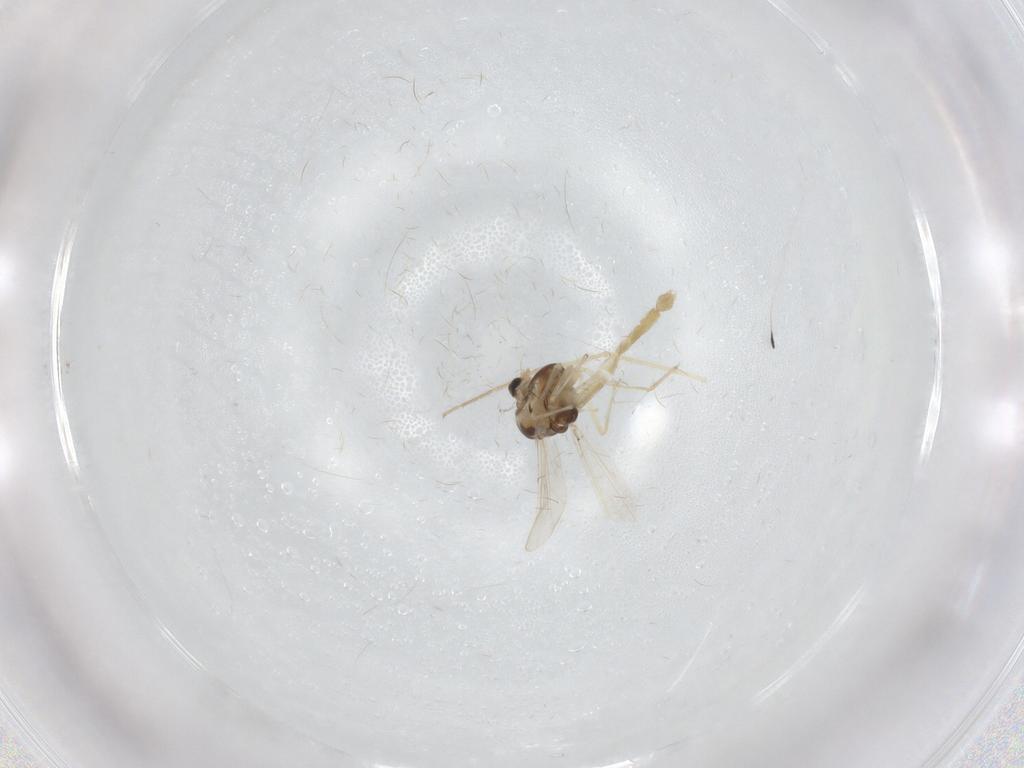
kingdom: Animalia
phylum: Arthropoda
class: Insecta
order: Diptera
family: Chironomidae
